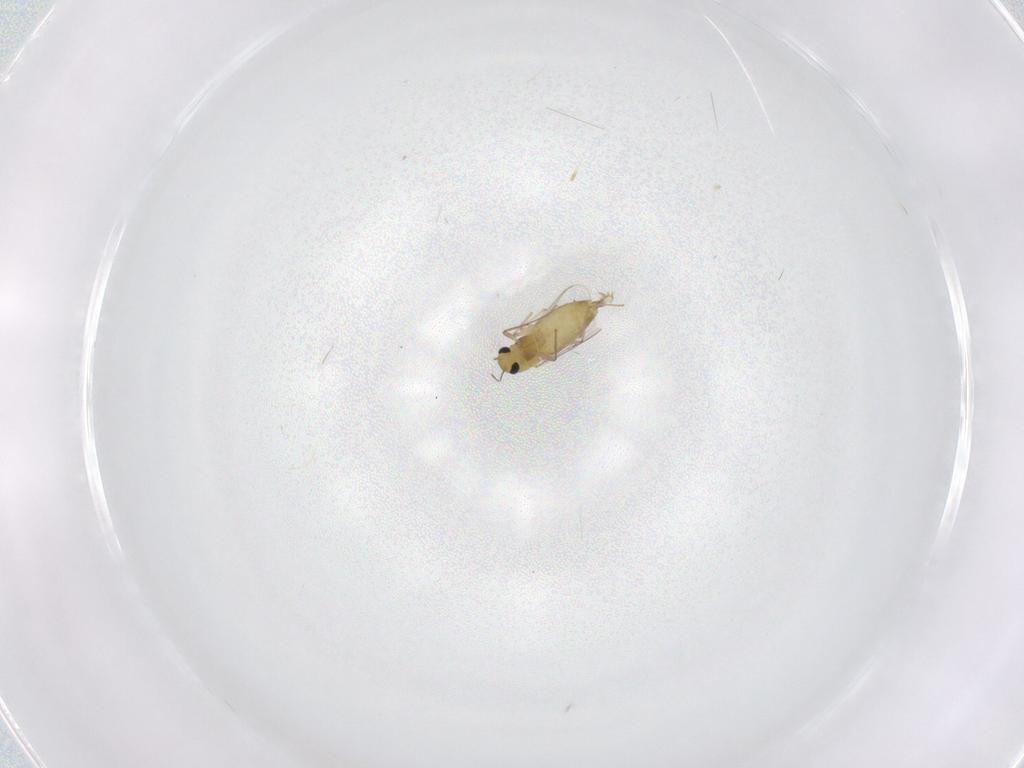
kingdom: Animalia
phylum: Arthropoda
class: Insecta
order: Diptera
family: Chironomidae
